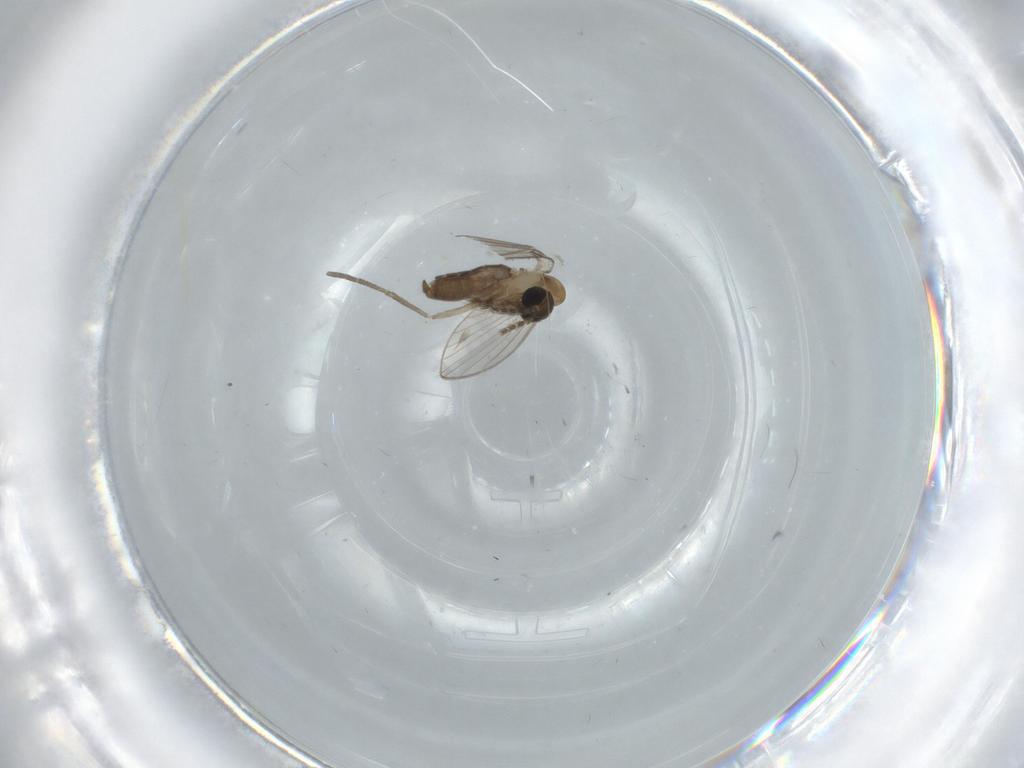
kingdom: Animalia
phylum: Arthropoda
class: Insecta
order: Diptera
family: Psychodidae
